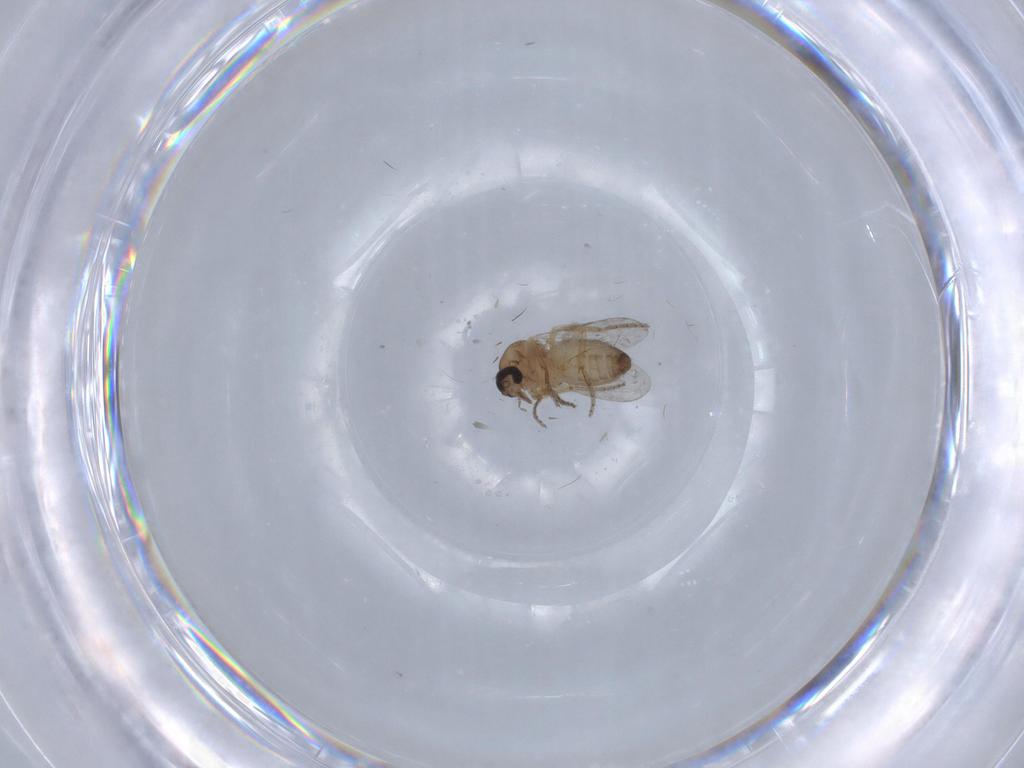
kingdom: Animalia
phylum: Arthropoda
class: Insecta
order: Diptera
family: Ceratopogonidae
